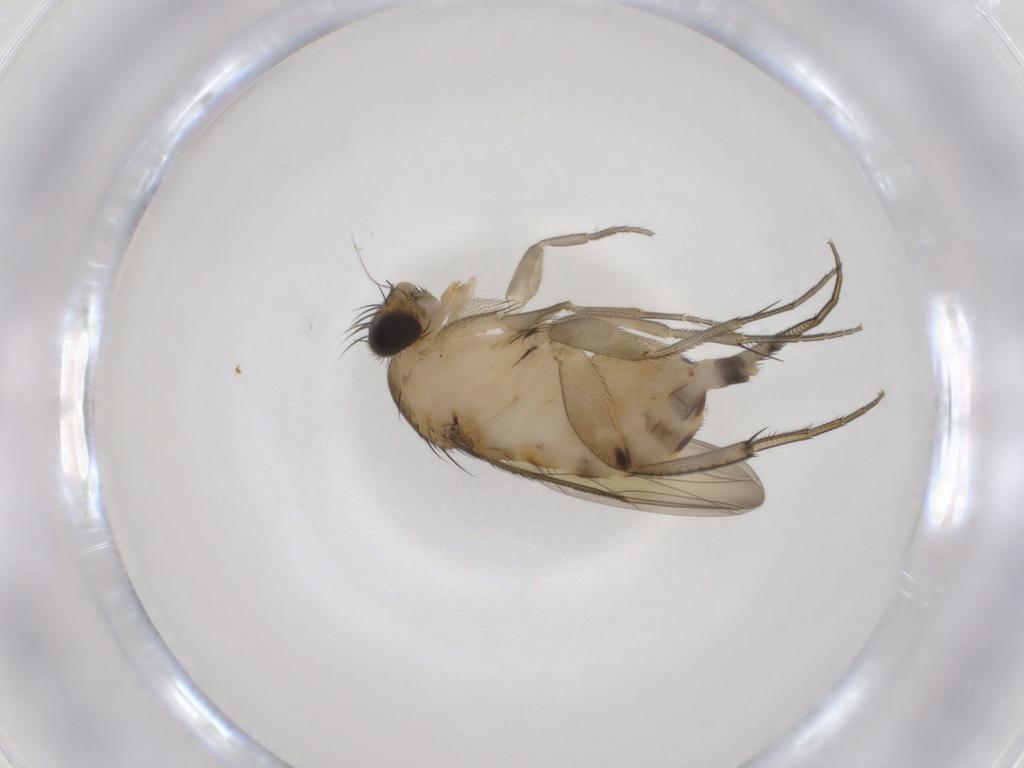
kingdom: Animalia
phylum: Arthropoda
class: Insecta
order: Diptera
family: Phoridae
